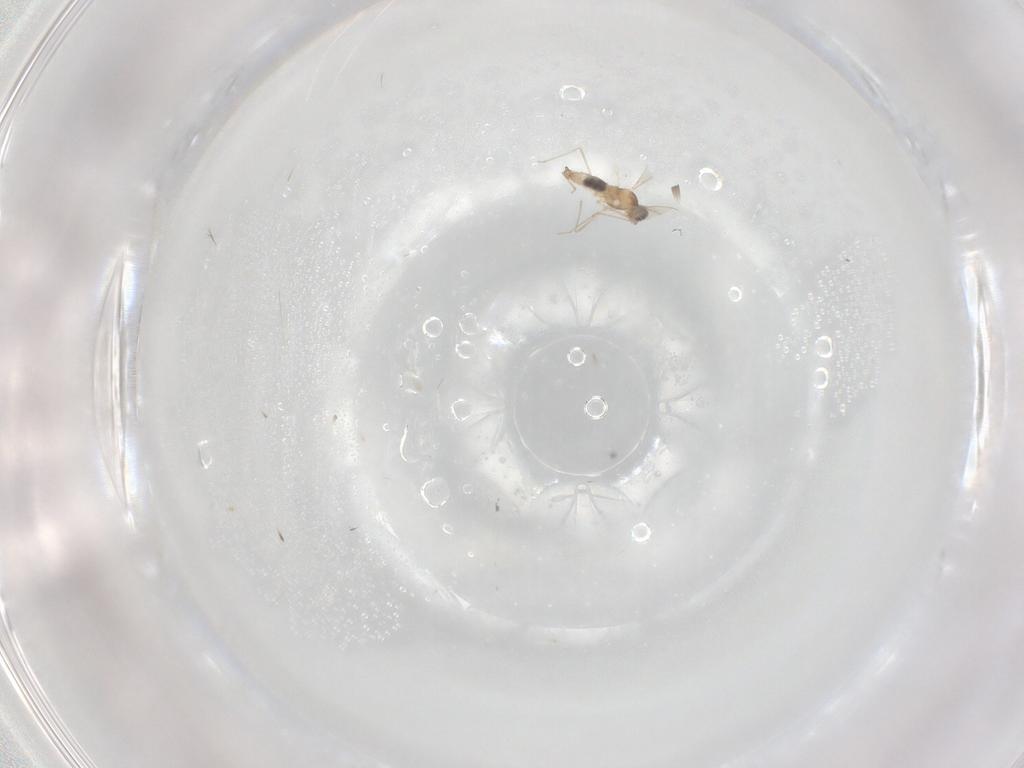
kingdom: Animalia
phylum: Arthropoda
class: Insecta
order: Diptera
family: Cecidomyiidae
